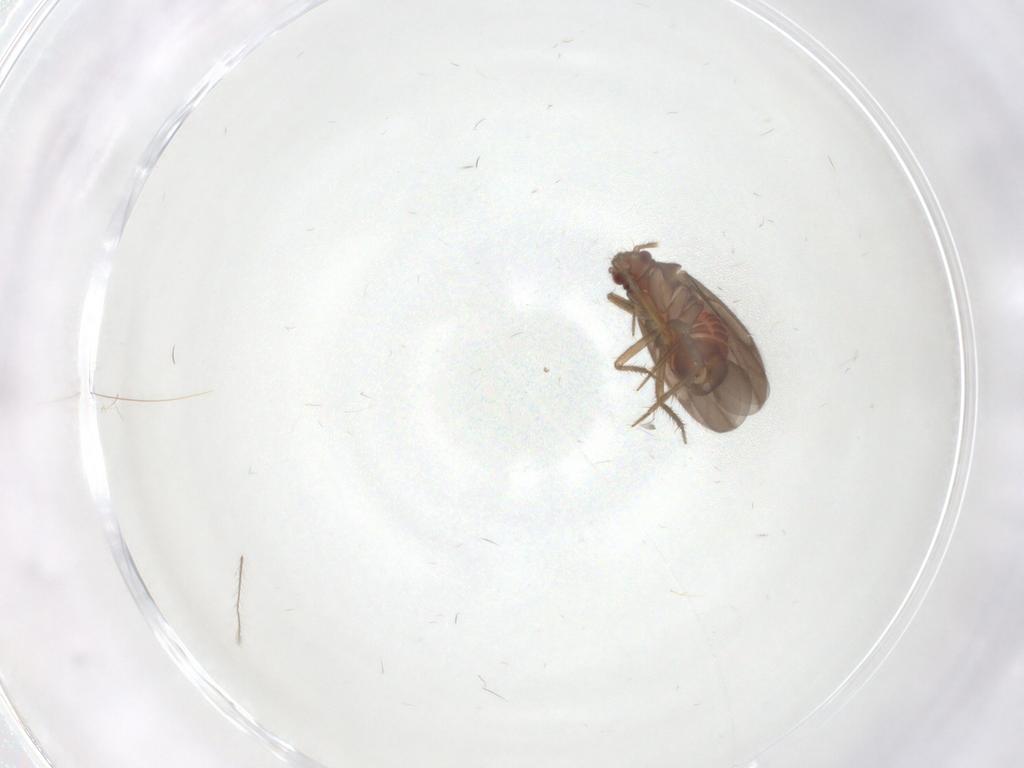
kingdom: Animalia
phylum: Arthropoda
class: Insecta
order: Hemiptera
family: Ceratocombidae
